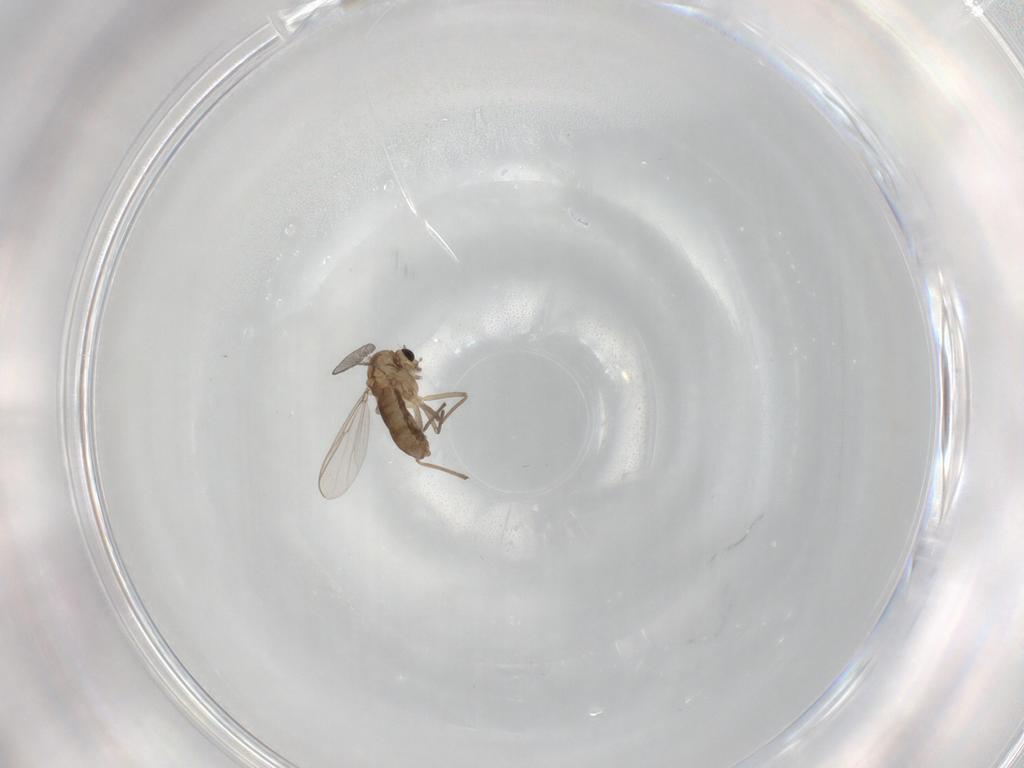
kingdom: Animalia
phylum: Arthropoda
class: Insecta
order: Diptera
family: Chironomidae
